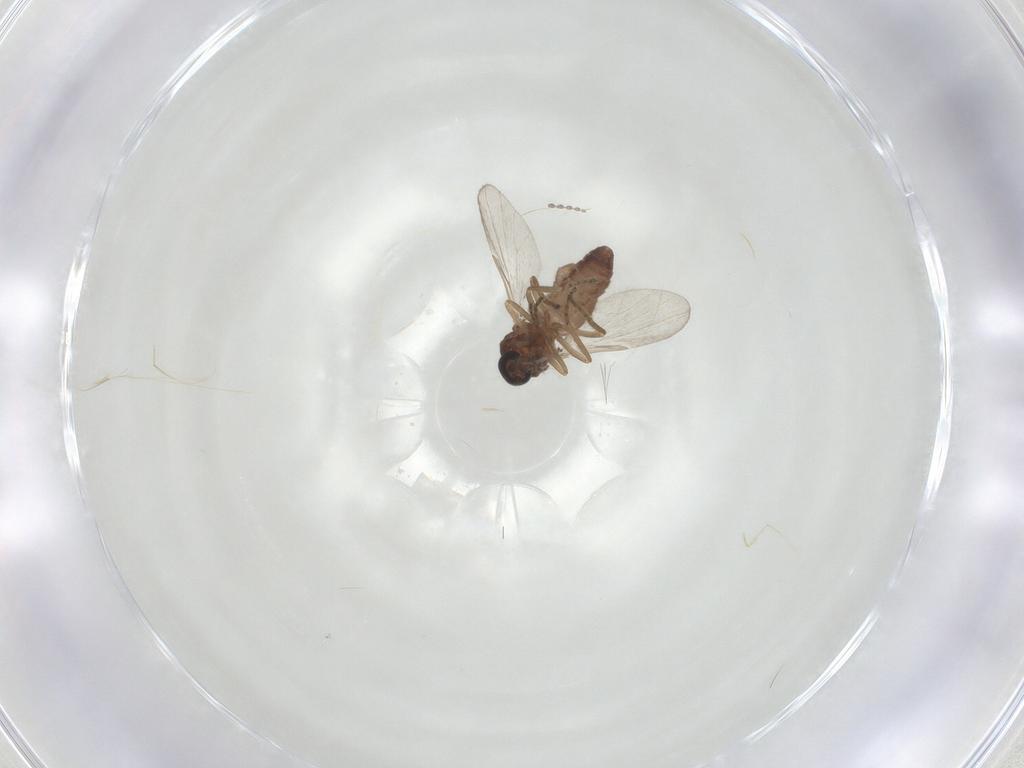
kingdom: Animalia
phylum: Arthropoda
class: Insecta
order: Diptera
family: Ceratopogonidae
